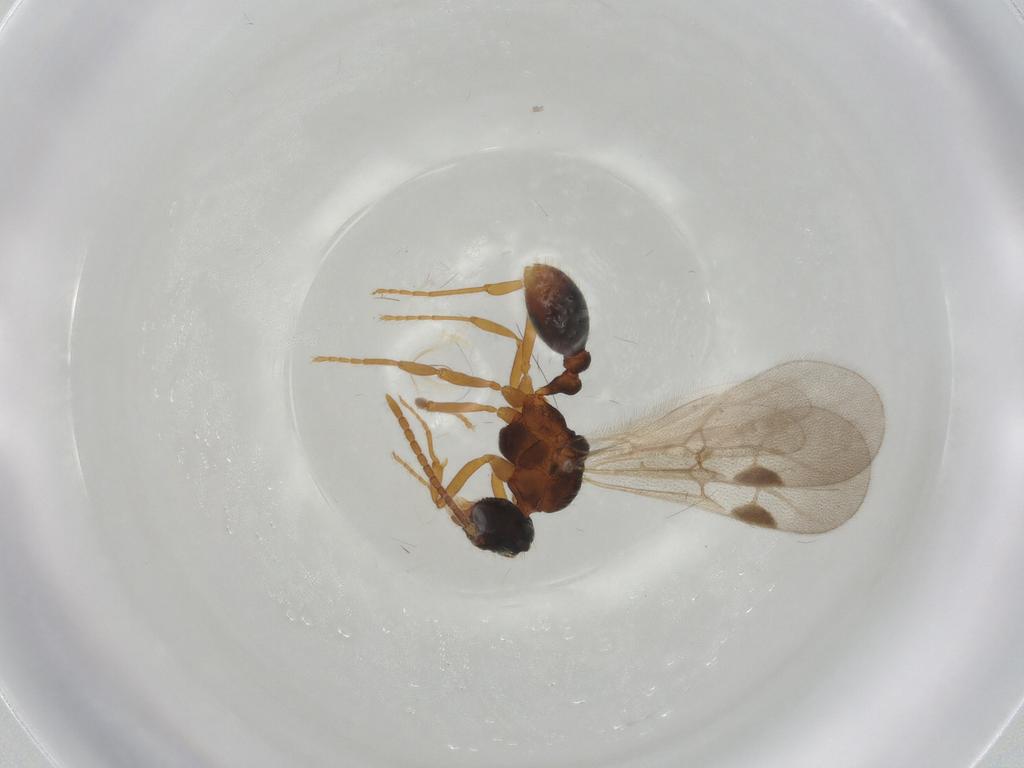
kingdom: Animalia
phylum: Arthropoda
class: Insecta
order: Hymenoptera
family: Formicidae
